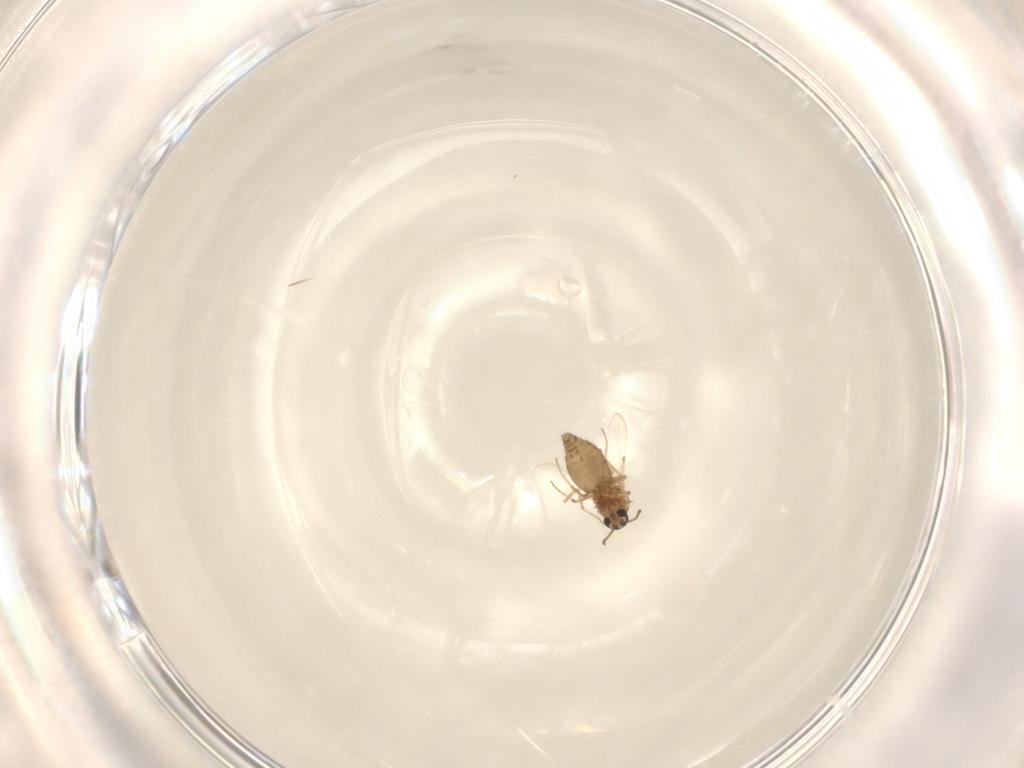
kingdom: Animalia
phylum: Arthropoda
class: Insecta
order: Diptera
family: Ceratopogonidae
